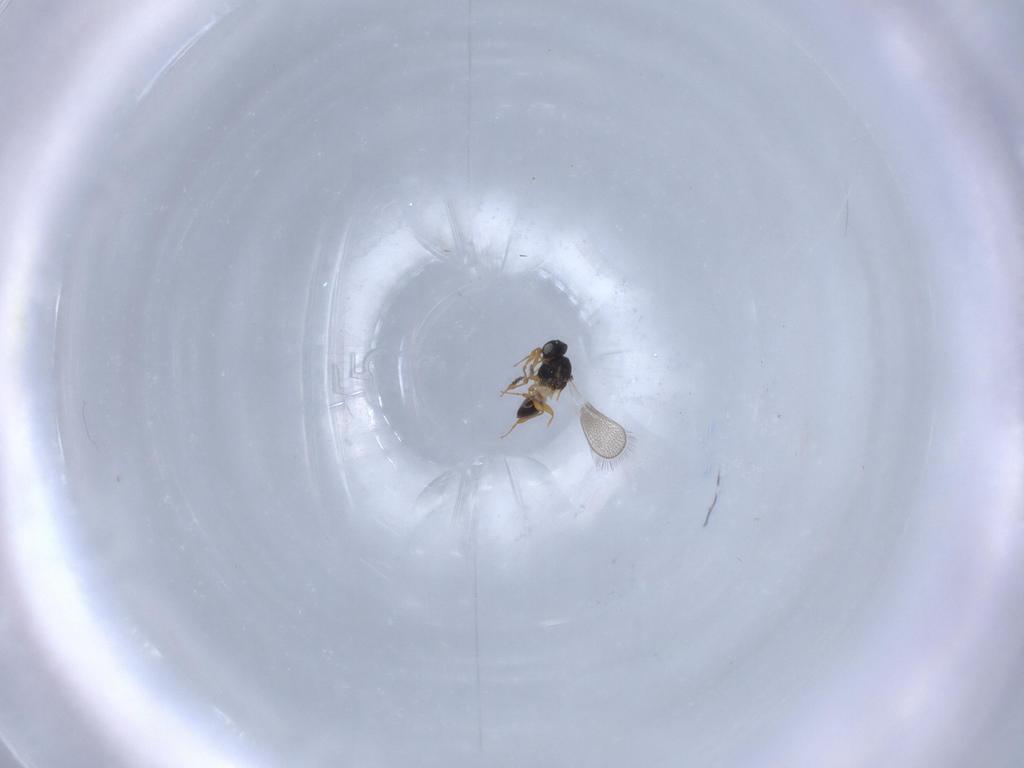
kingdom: Animalia
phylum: Arthropoda
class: Insecta
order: Hymenoptera
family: Platygastridae
